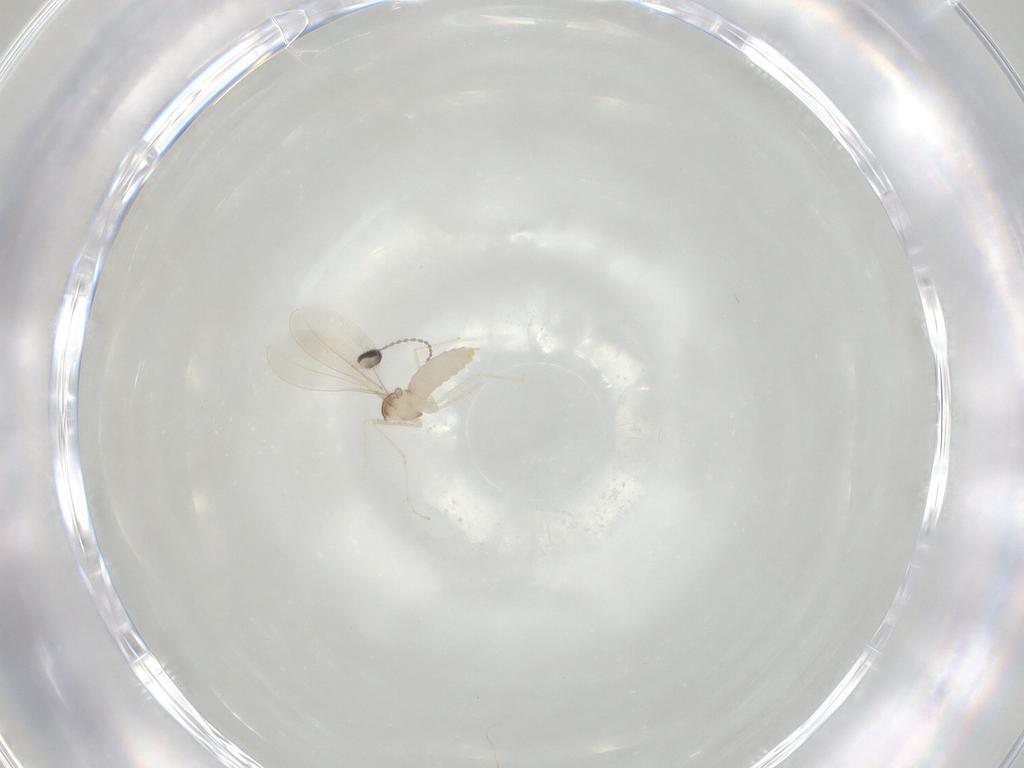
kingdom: Animalia
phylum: Arthropoda
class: Insecta
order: Diptera
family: Cecidomyiidae
